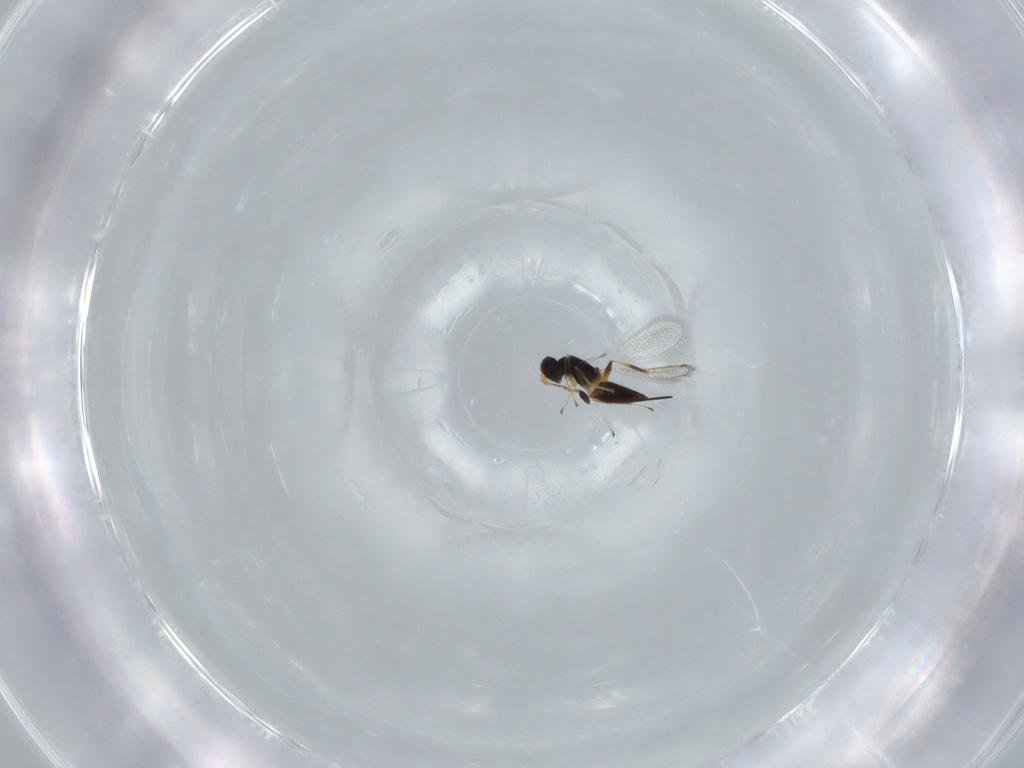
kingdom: Animalia
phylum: Arthropoda
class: Insecta
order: Hymenoptera
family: Mymaridae
